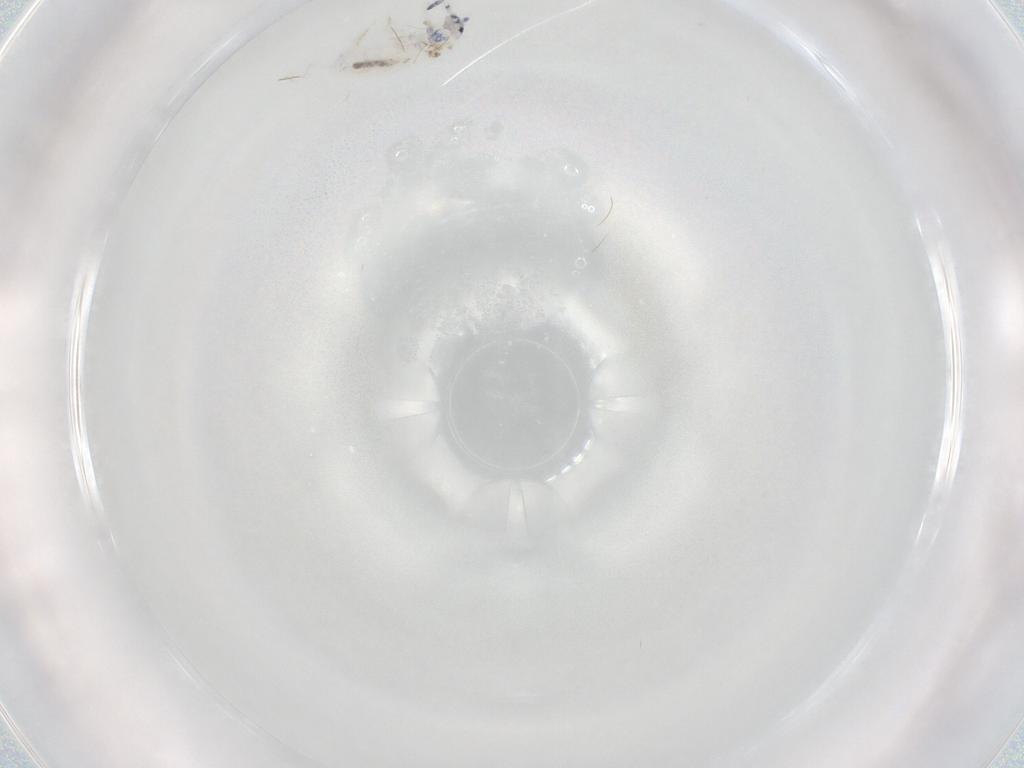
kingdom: Animalia
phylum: Arthropoda
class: Collembola
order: Entomobryomorpha
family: Entomobryidae
